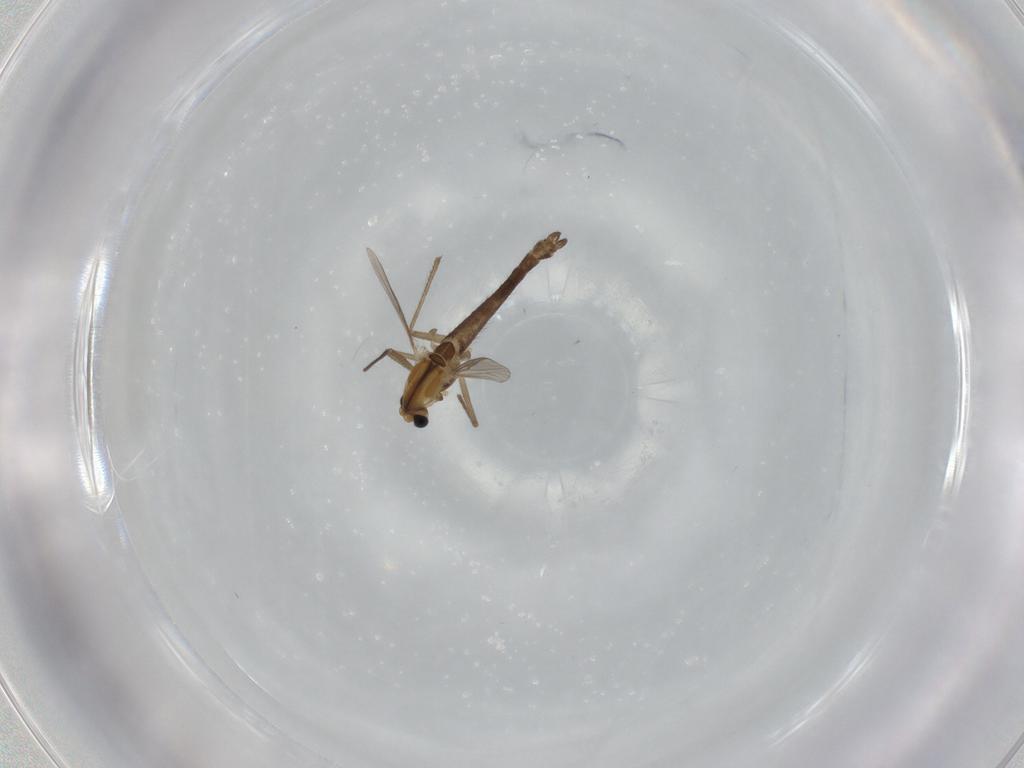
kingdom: Animalia
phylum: Arthropoda
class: Insecta
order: Diptera
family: Chironomidae
